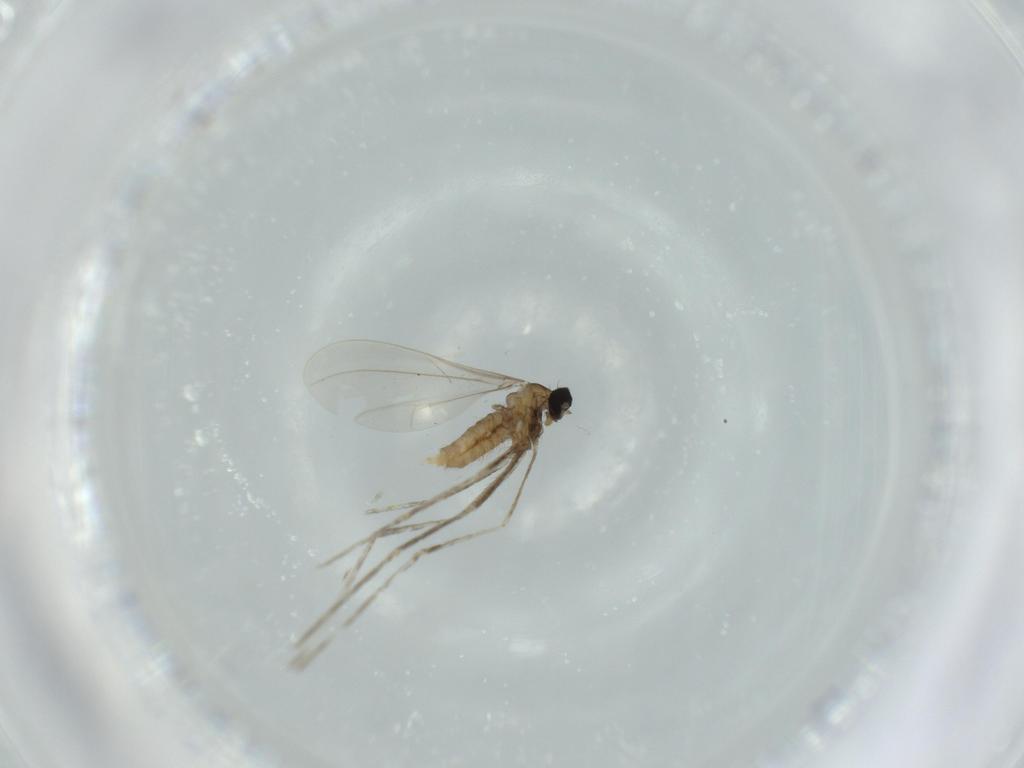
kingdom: Animalia
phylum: Arthropoda
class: Insecta
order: Diptera
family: Cecidomyiidae
